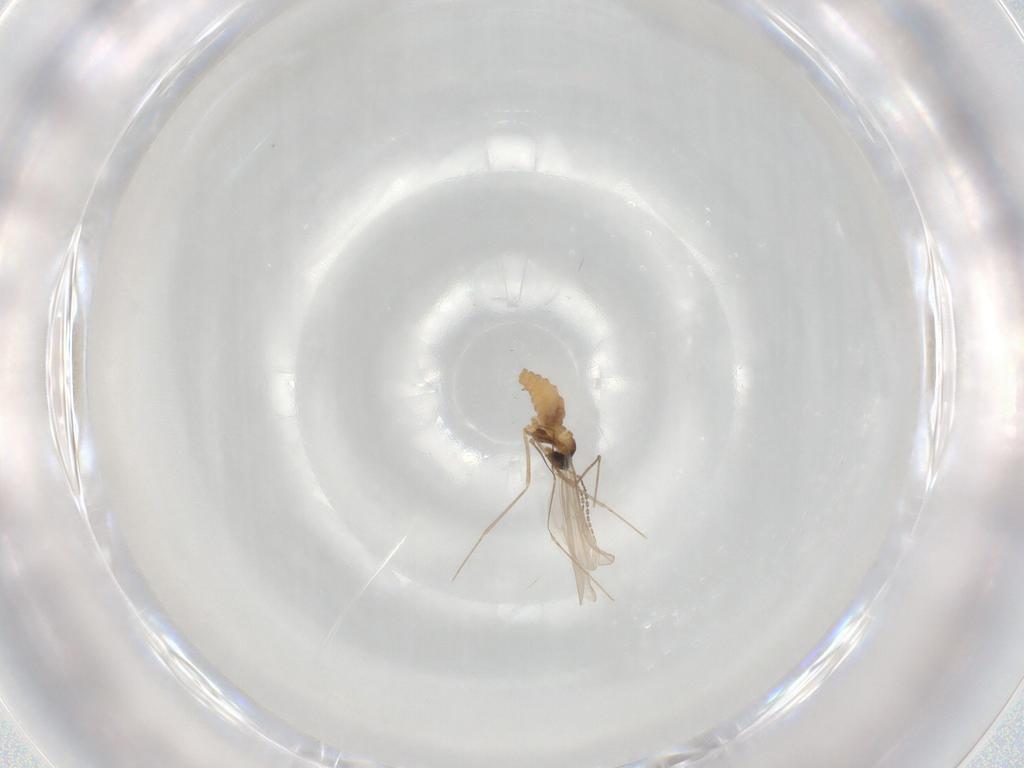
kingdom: Animalia
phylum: Arthropoda
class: Insecta
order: Diptera
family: Cecidomyiidae
